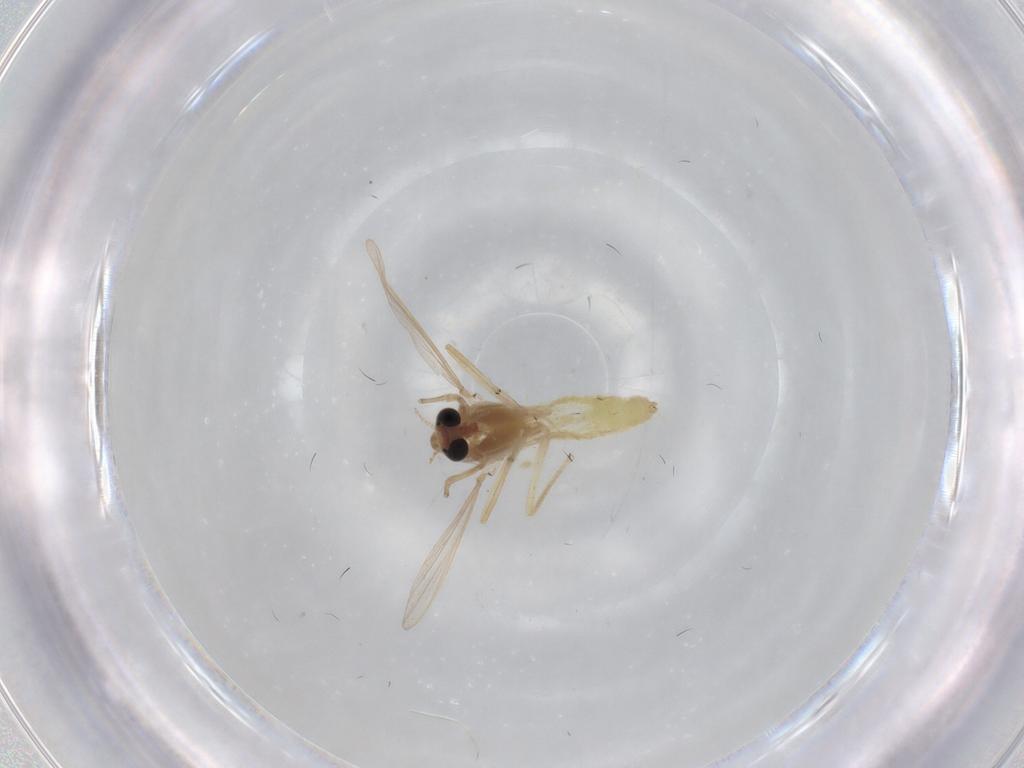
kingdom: Animalia
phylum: Arthropoda
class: Insecta
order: Diptera
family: Chironomidae
